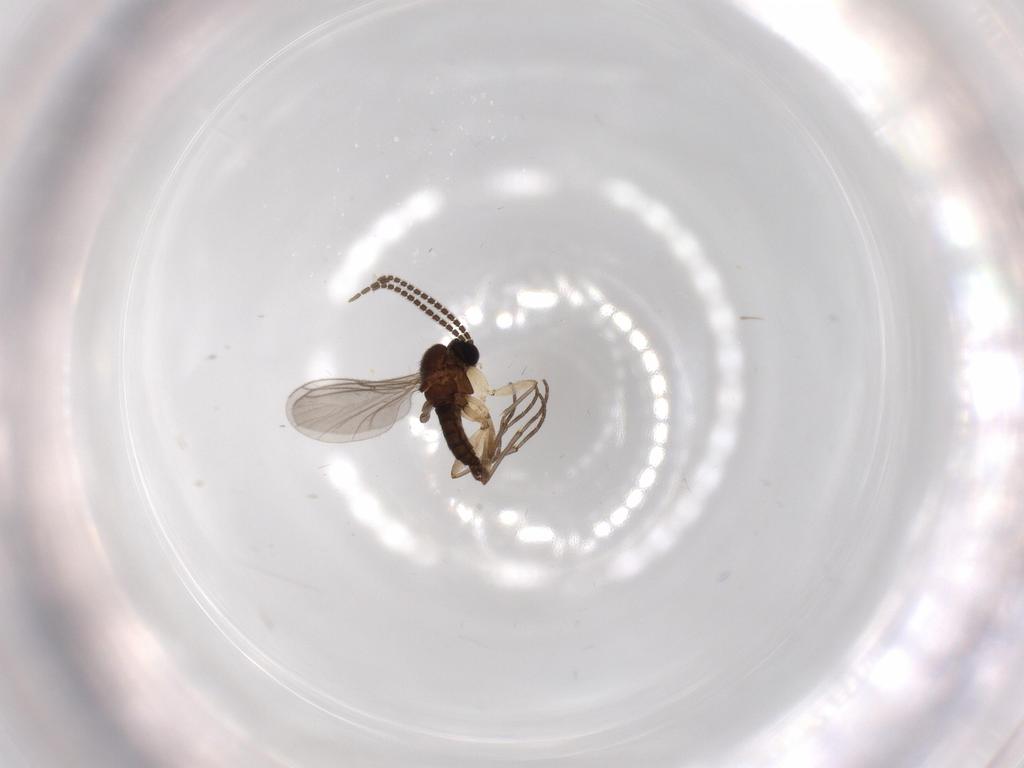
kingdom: Animalia
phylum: Arthropoda
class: Insecta
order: Diptera
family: Sciaridae
